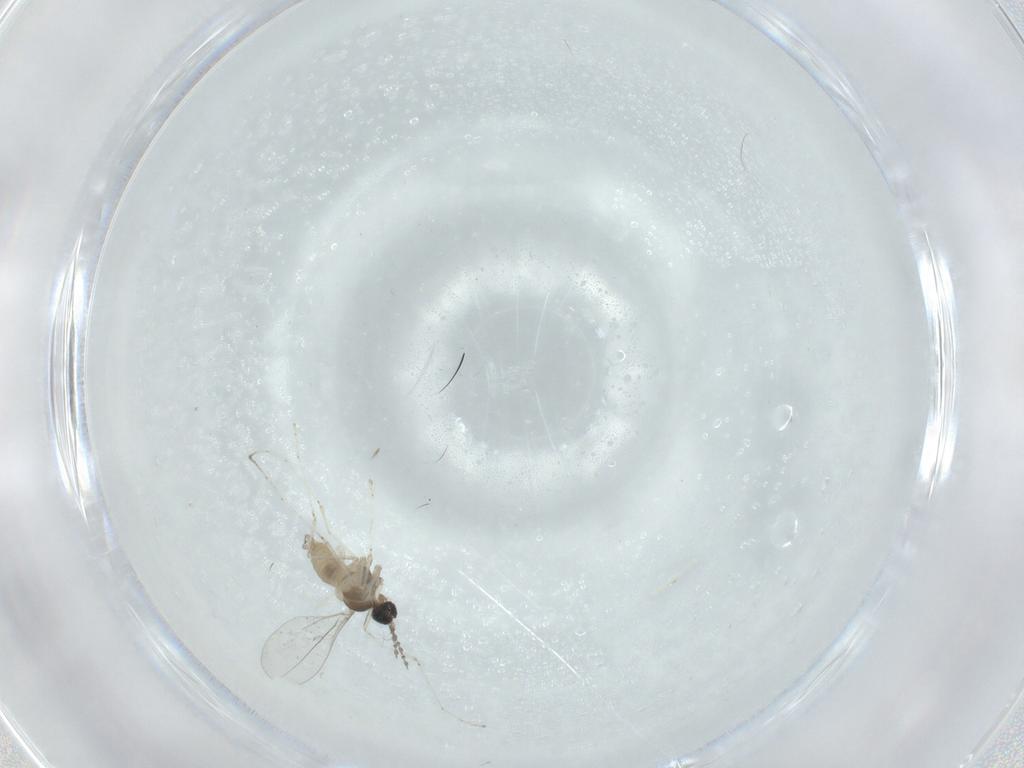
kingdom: Animalia
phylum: Arthropoda
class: Insecta
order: Diptera
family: Cecidomyiidae
